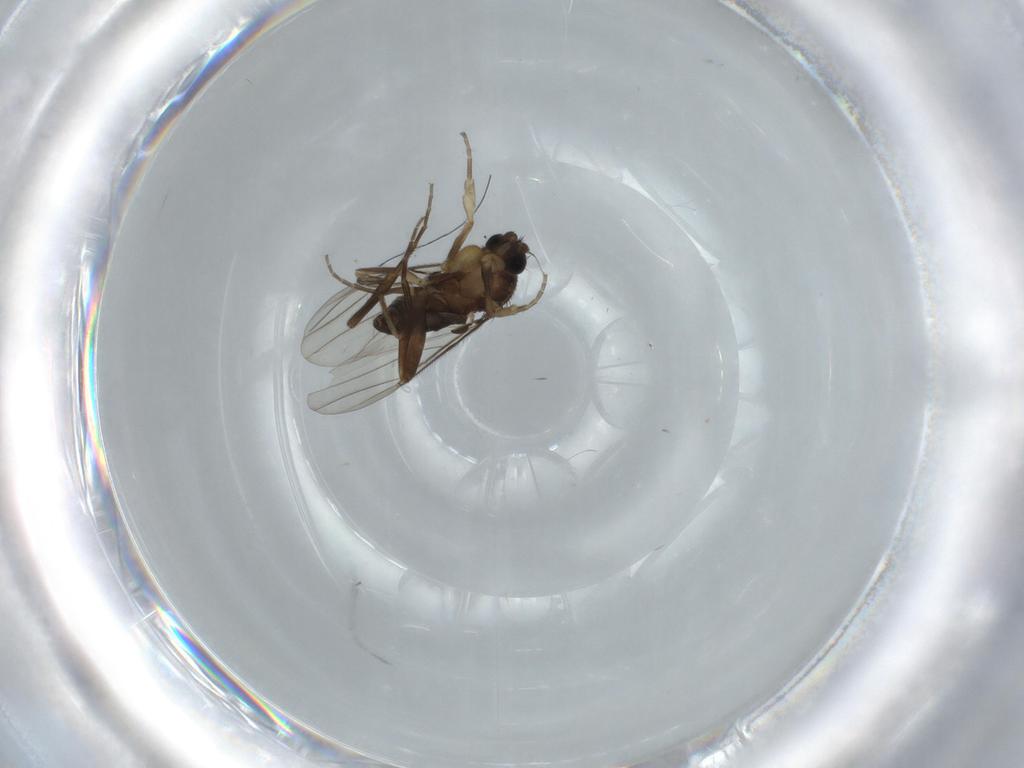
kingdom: Animalia
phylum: Arthropoda
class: Insecta
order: Diptera
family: Phoridae
